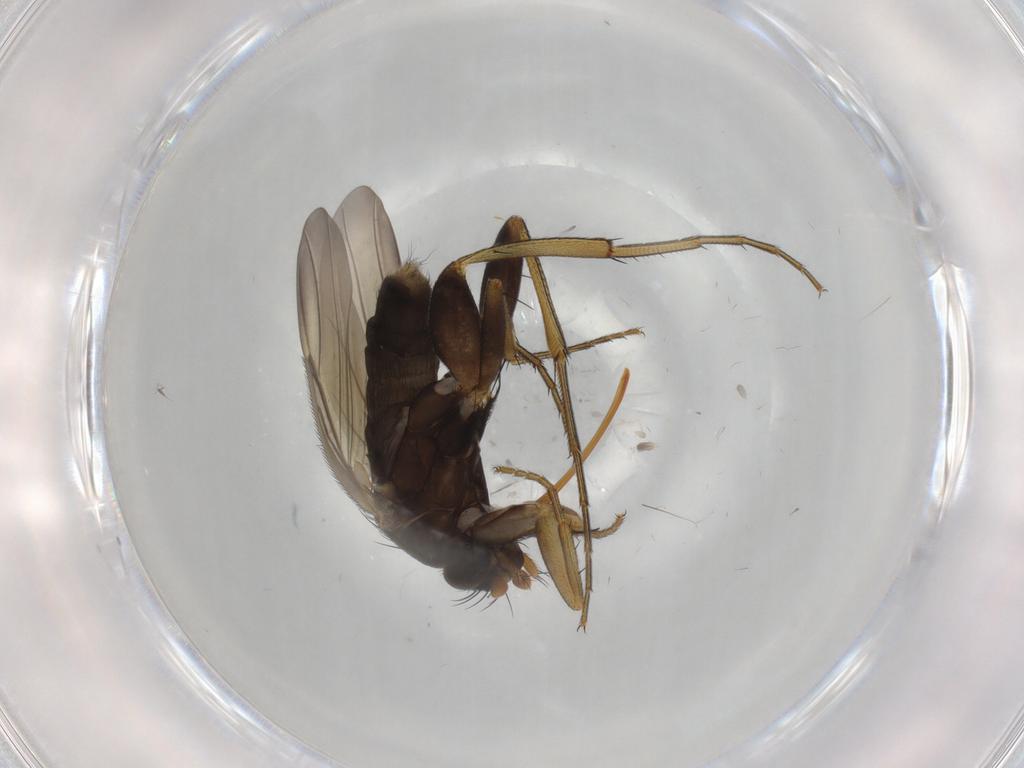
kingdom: Animalia
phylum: Arthropoda
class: Insecta
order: Diptera
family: Phoridae
